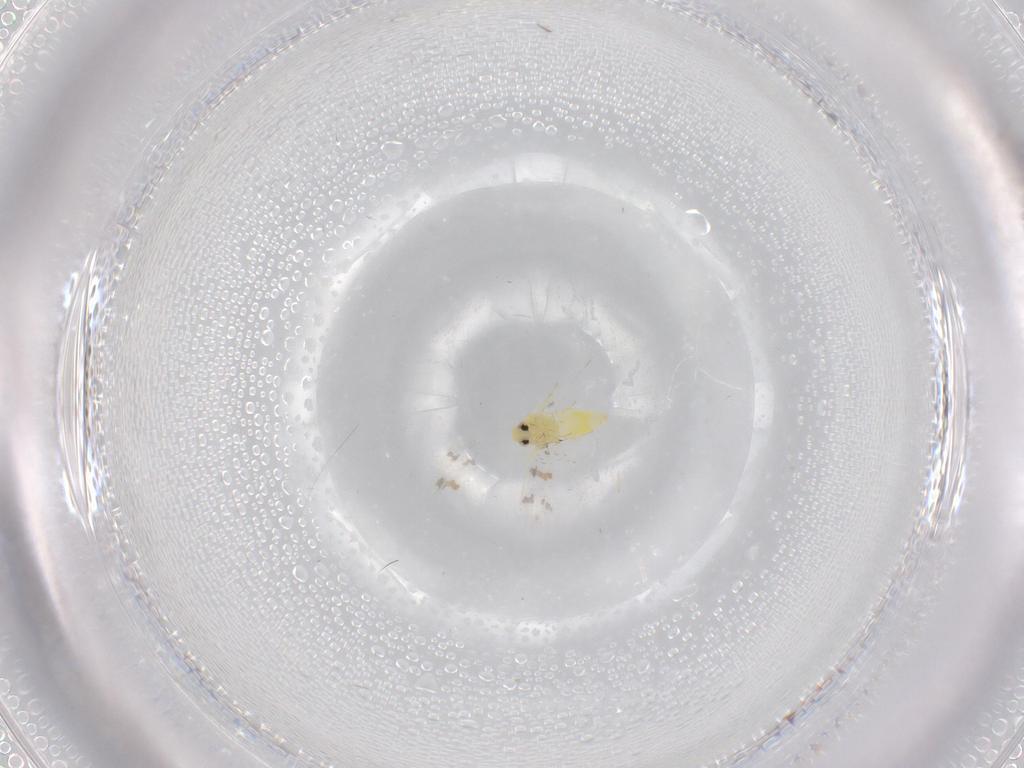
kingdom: Animalia
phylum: Arthropoda
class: Insecta
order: Hemiptera
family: Aleyrodidae
